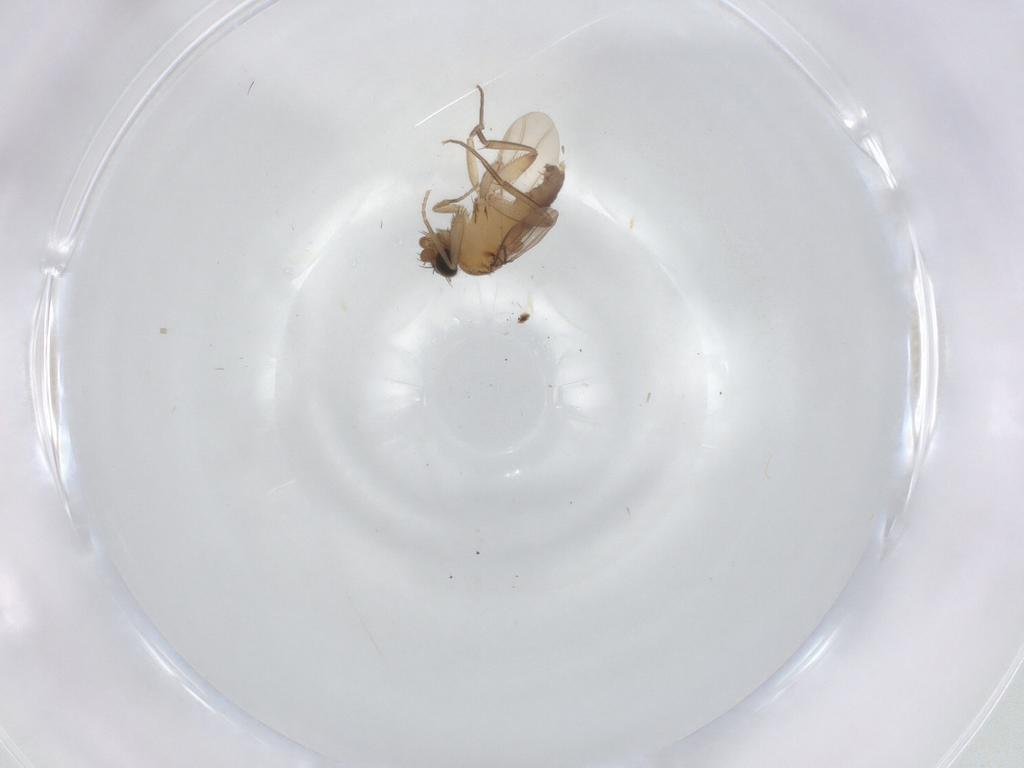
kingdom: Animalia
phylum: Arthropoda
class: Insecta
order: Diptera
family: Phoridae
